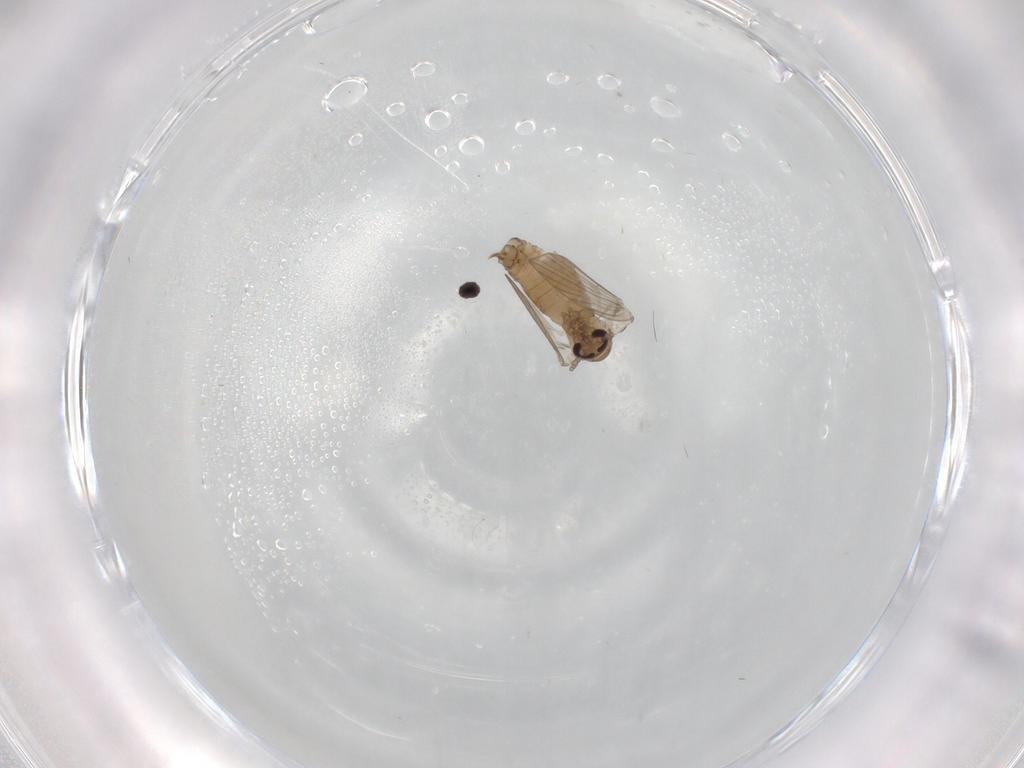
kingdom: Animalia
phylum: Arthropoda
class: Insecta
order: Diptera
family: Psychodidae
